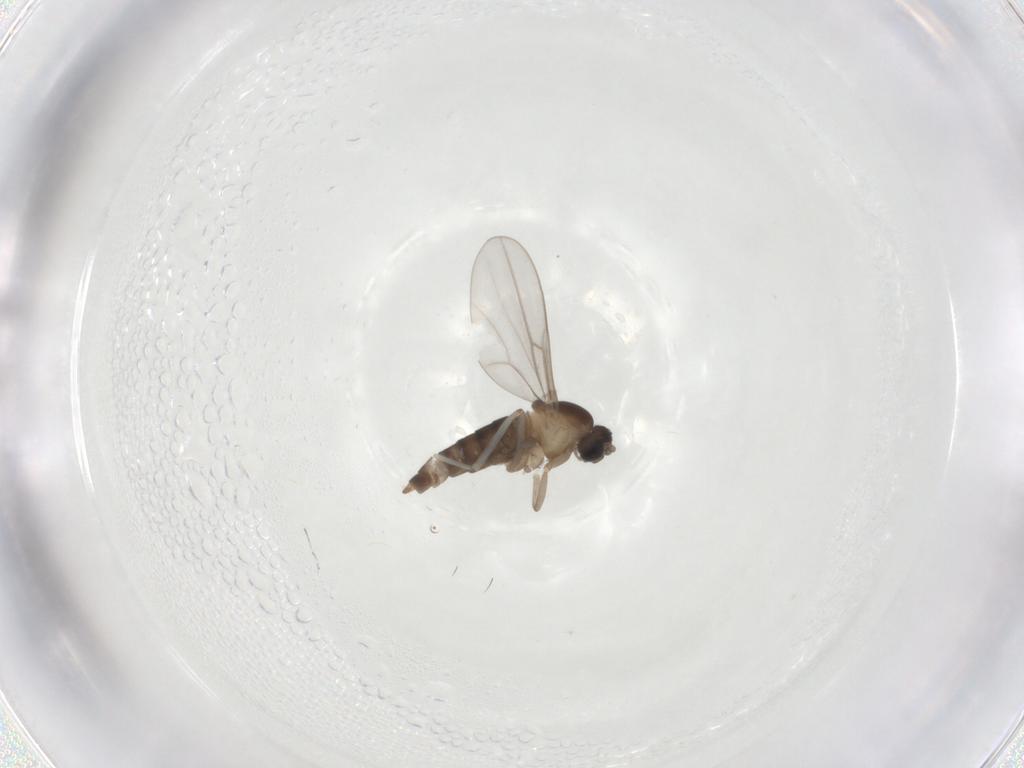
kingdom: Animalia
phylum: Arthropoda
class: Insecta
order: Diptera
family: Cecidomyiidae
